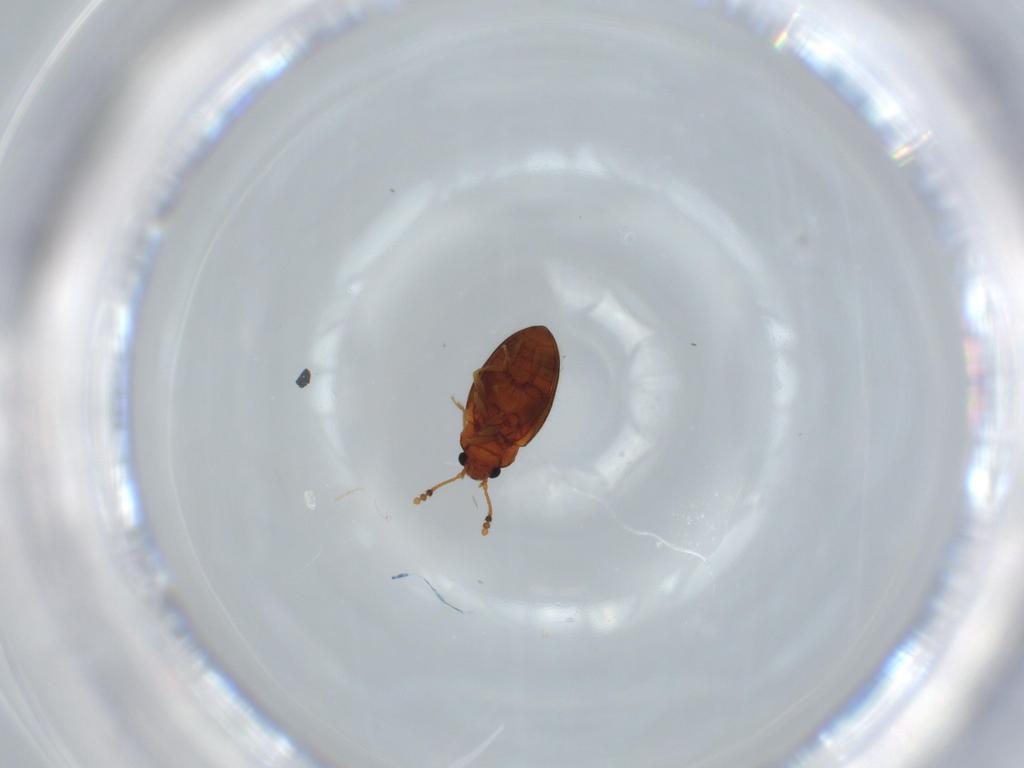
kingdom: Animalia
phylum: Arthropoda
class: Insecta
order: Coleoptera
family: Erotylidae
